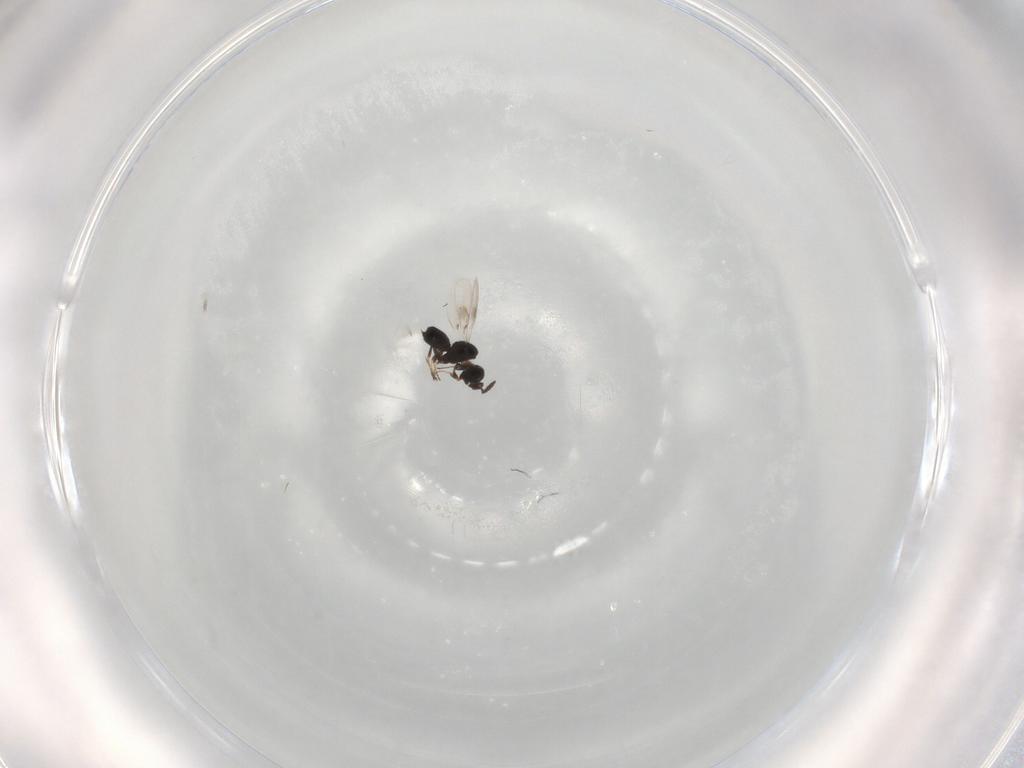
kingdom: Animalia
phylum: Arthropoda
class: Insecta
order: Hymenoptera
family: Scelionidae
